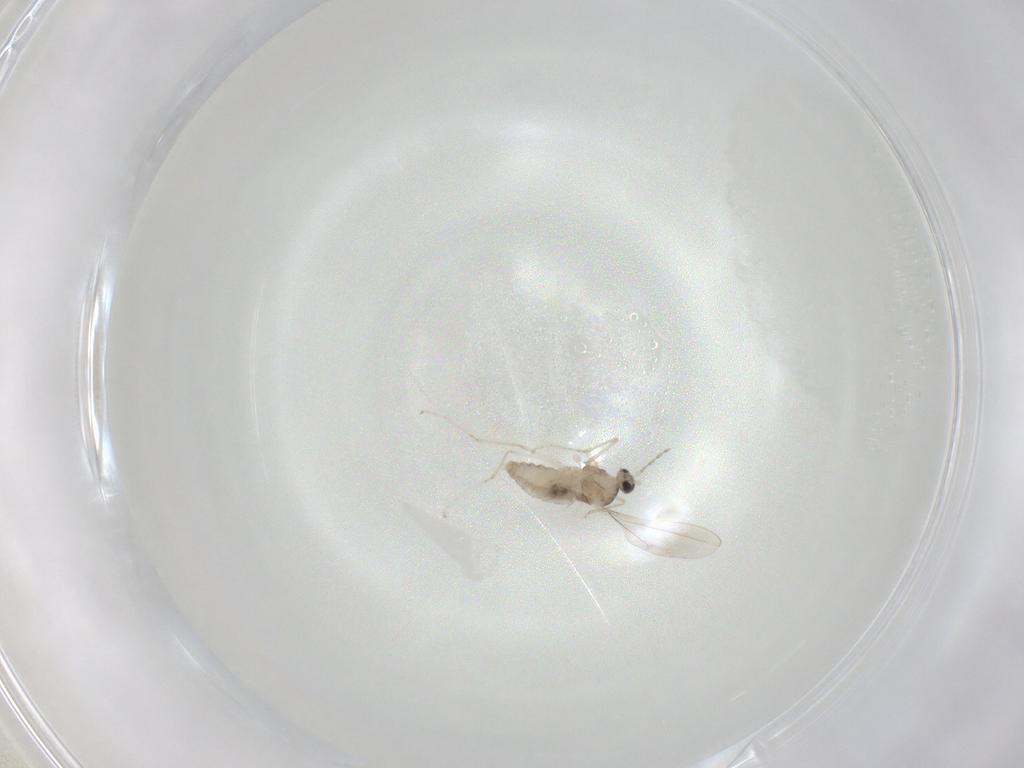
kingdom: Animalia
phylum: Arthropoda
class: Insecta
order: Diptera
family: Cecidomyiidae
